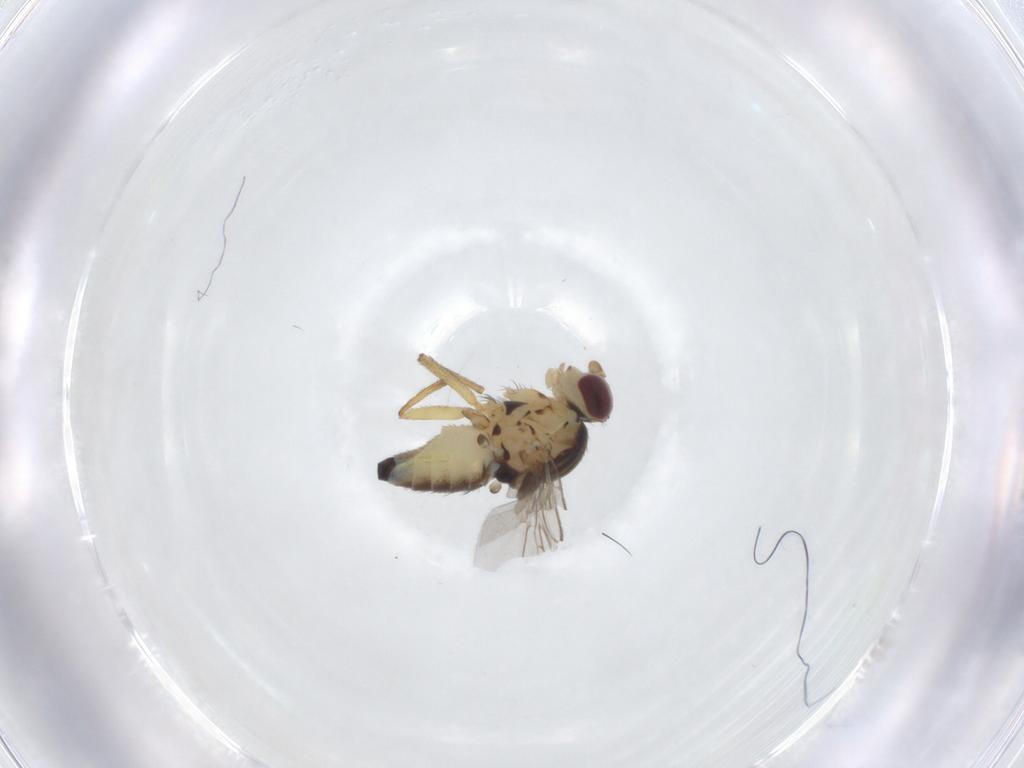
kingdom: Animalia
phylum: Arthropoda
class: Insecta
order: Diptera
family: Agromyzidae
